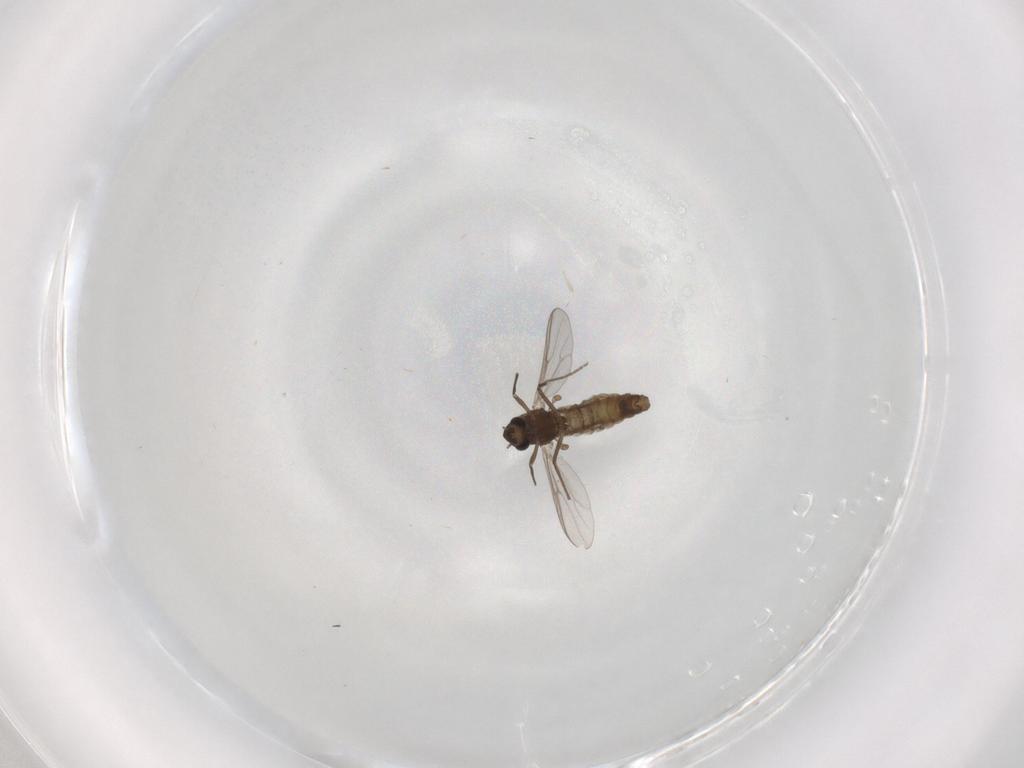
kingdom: Animalia
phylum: Arthropoda
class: Insecta
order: Diptera
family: Chironomidae
